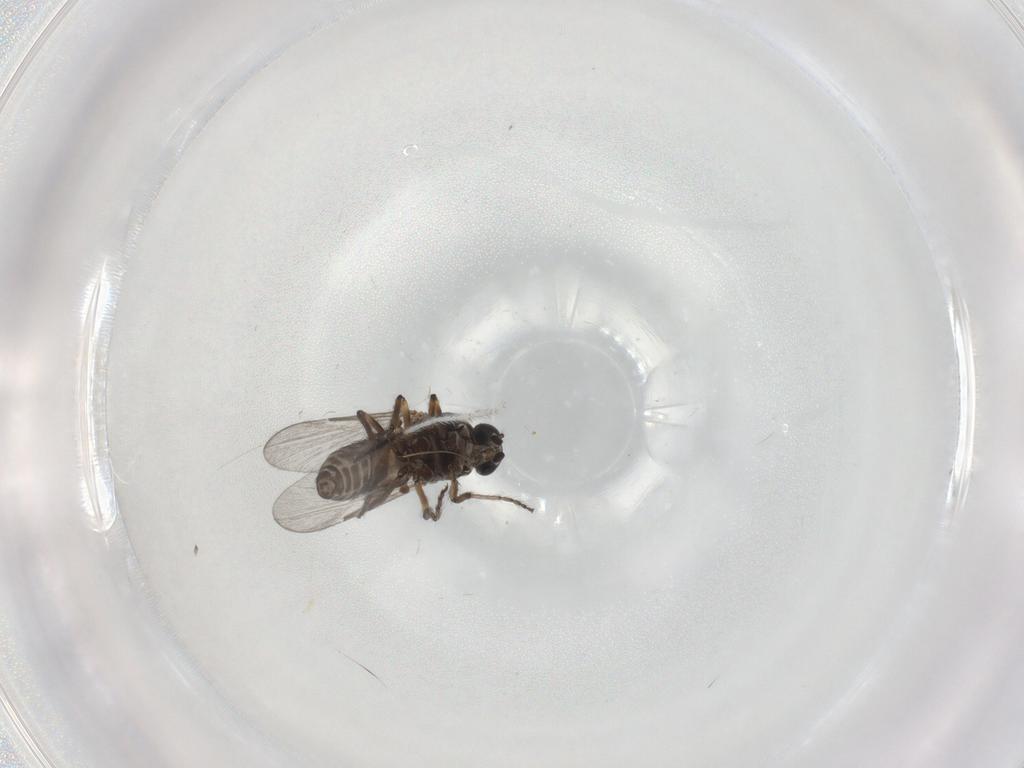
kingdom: Animalia
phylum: Arthropoda
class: Insecta
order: Diptera
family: Ceratopogonidae
